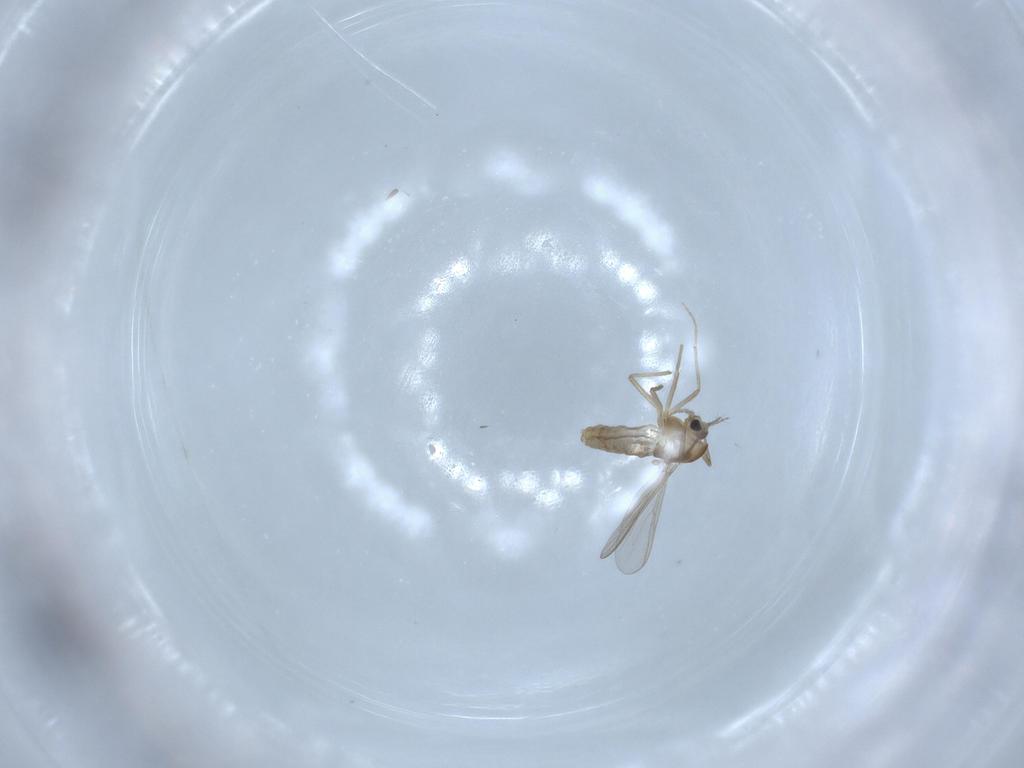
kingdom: Animalia
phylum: Arthropoda
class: Insecta
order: Diptera
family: Chironomidae
